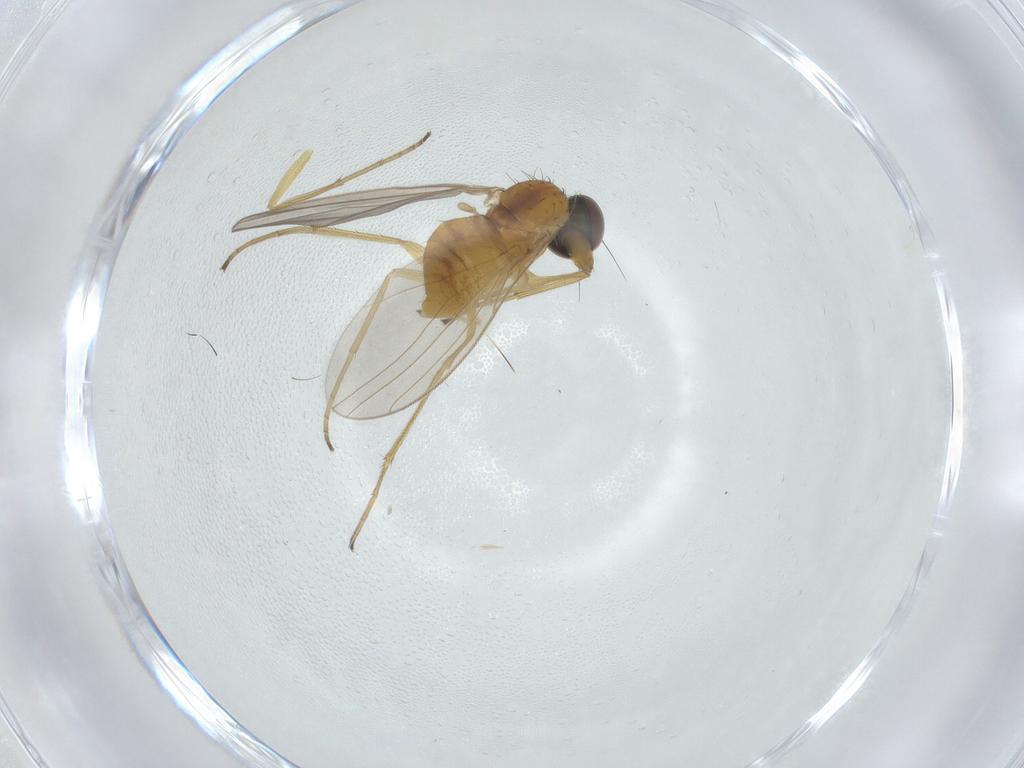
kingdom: Animalia
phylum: Arthropoda
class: Insecta
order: Diptera
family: Dolichopodidae
